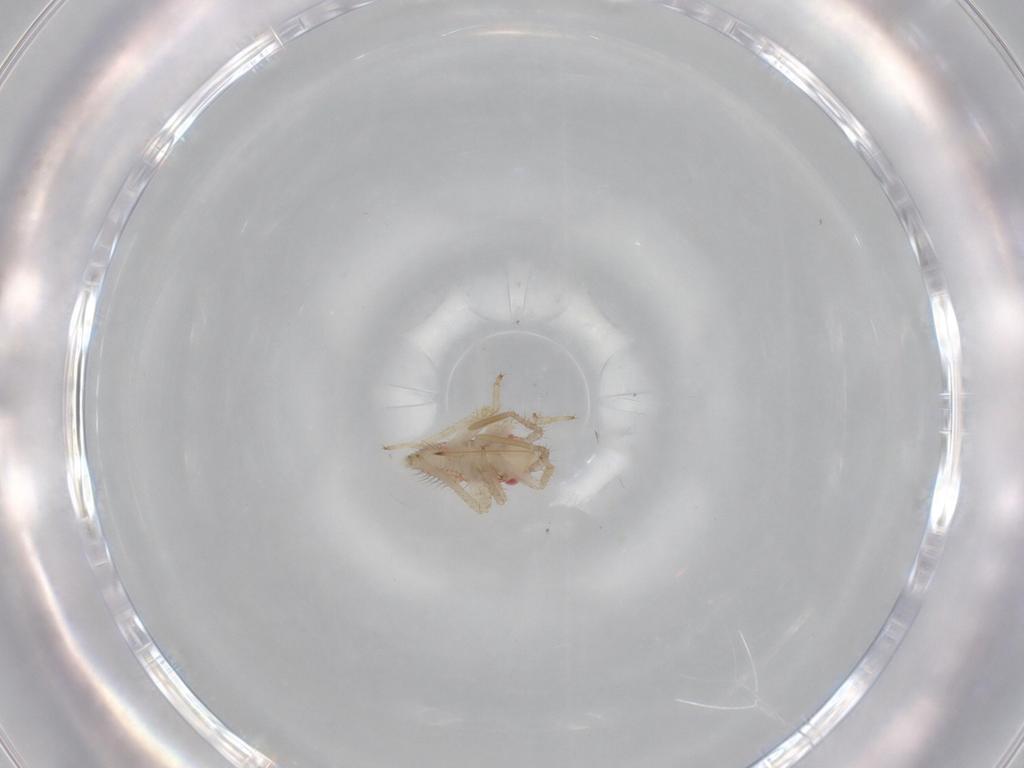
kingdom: Animalia
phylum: Arthropoda
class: Insecta
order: Hemiptera
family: Miridae
